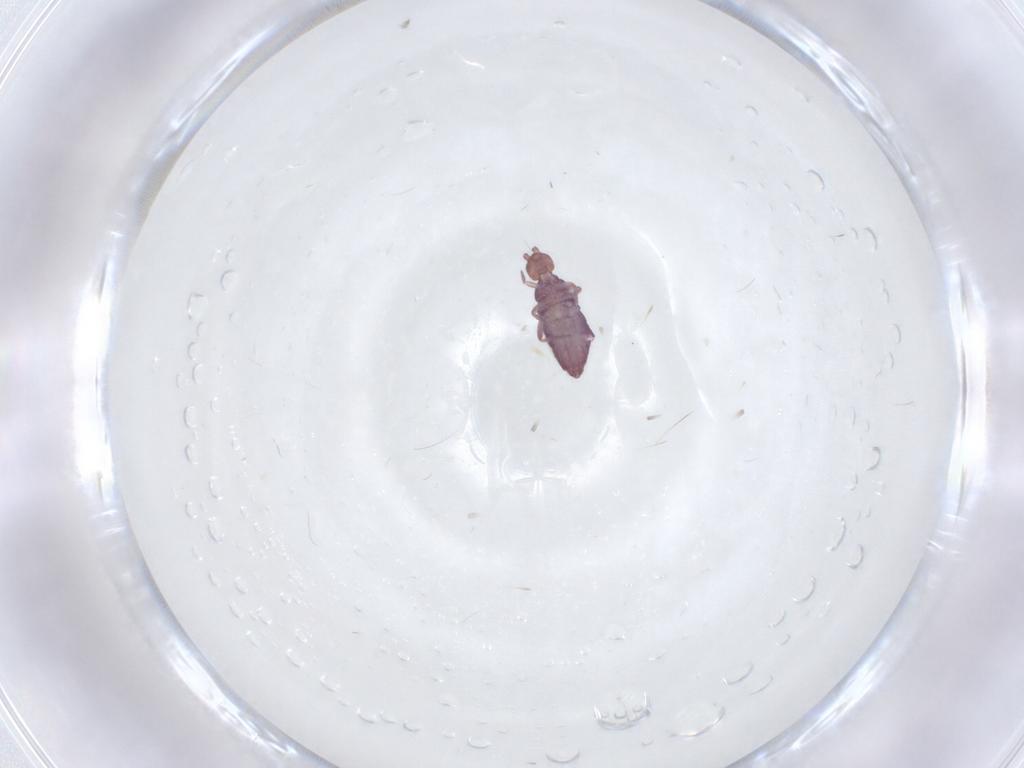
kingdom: Animalia
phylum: Arthropoda
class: Collembola
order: Entomobryomorpha
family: Entomobryidae
